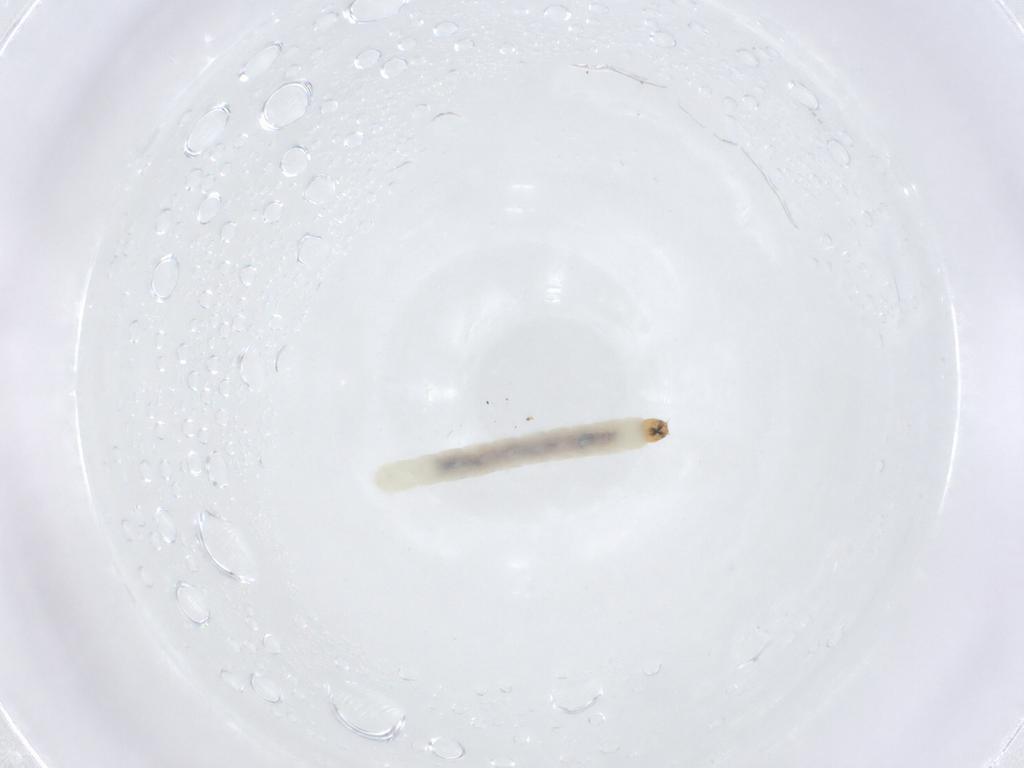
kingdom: Animalia
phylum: Arthropoda
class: Insecta
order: Diptera
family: Chironomidae
